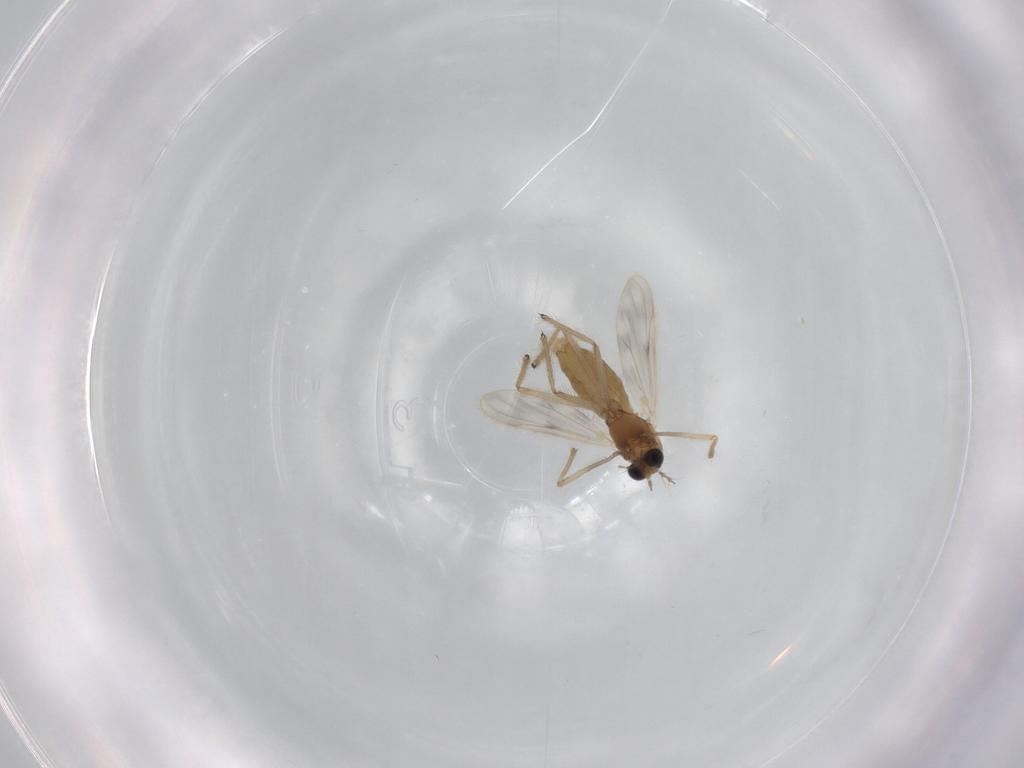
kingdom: Animalia
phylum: Arthropoda
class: Insecta
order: Diptera
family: Chironomidae
